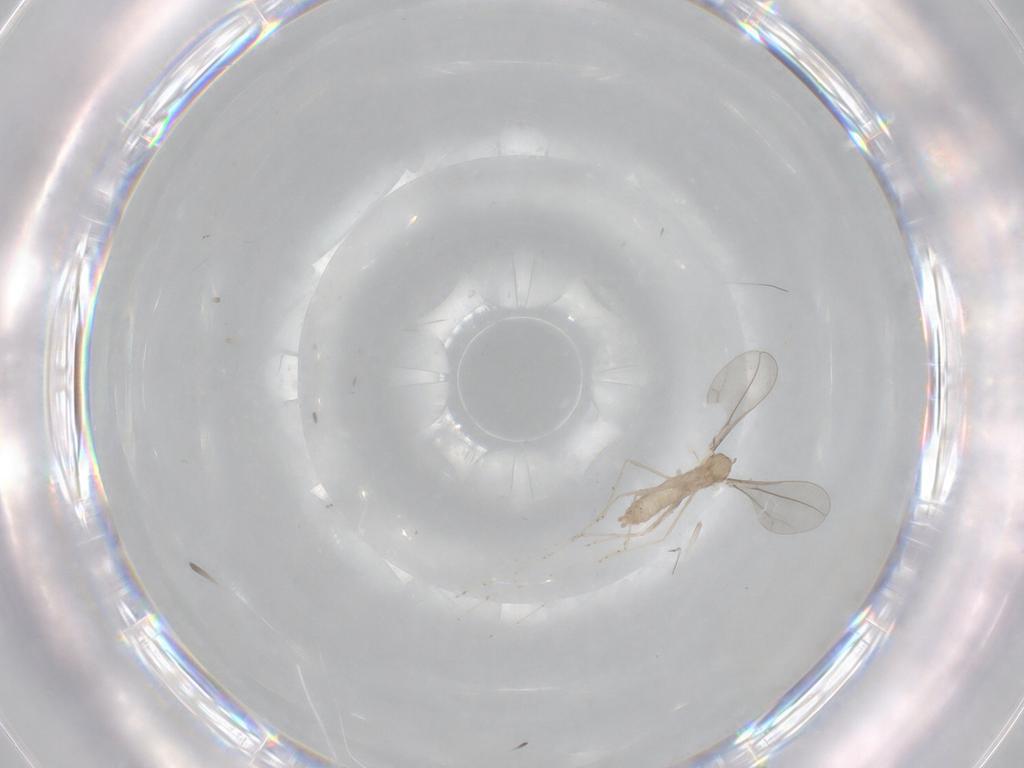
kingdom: Animalia
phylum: Arthropoda
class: Insecta
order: Diptera
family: Cecidomyiidae
